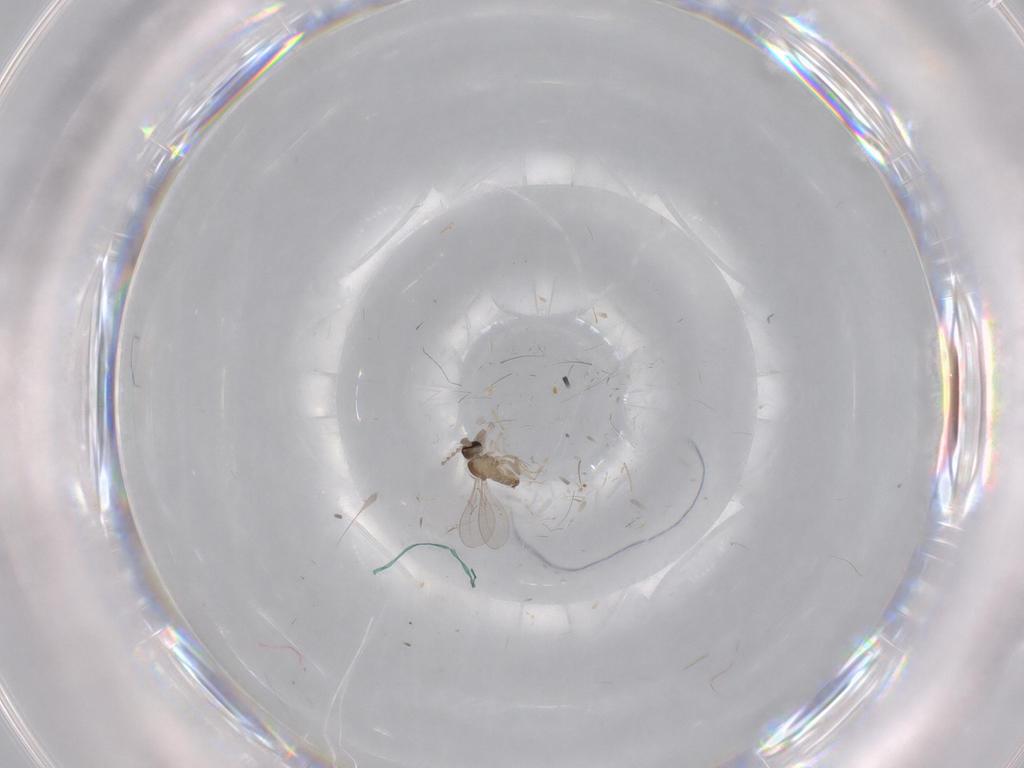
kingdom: Animalia
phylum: Arthropoda
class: Insecta
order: Diptera
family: Cecidomyiidae
